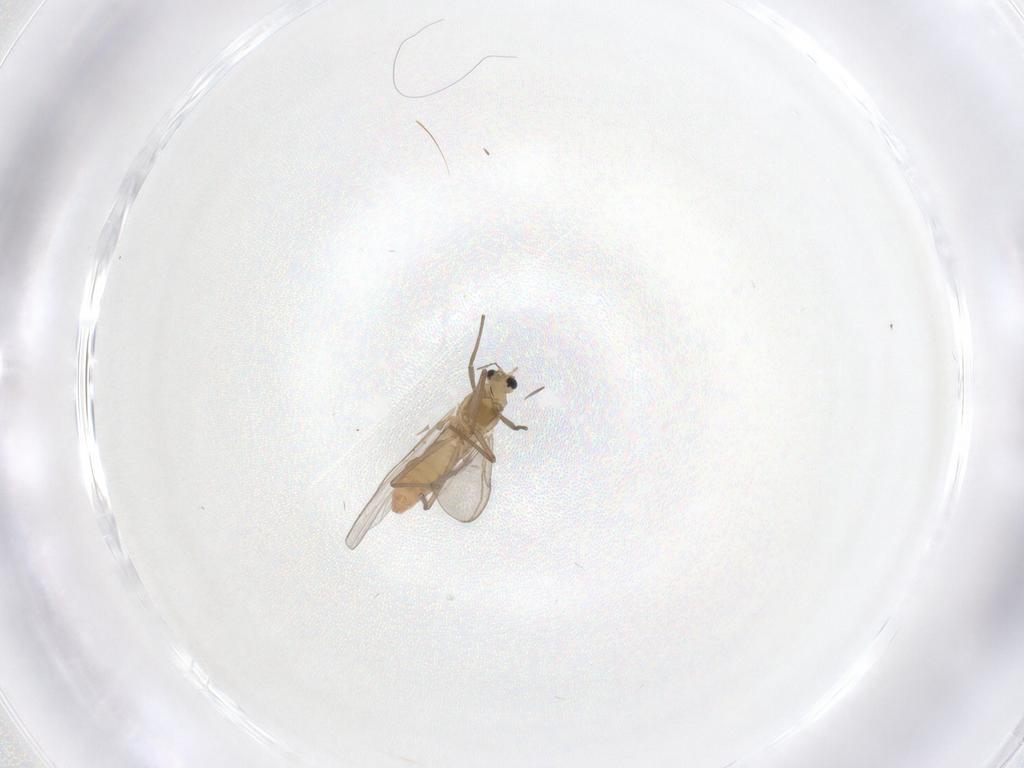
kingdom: Animalia
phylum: Arthropoda
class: Insecta
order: Diptera
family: Chironomidae
